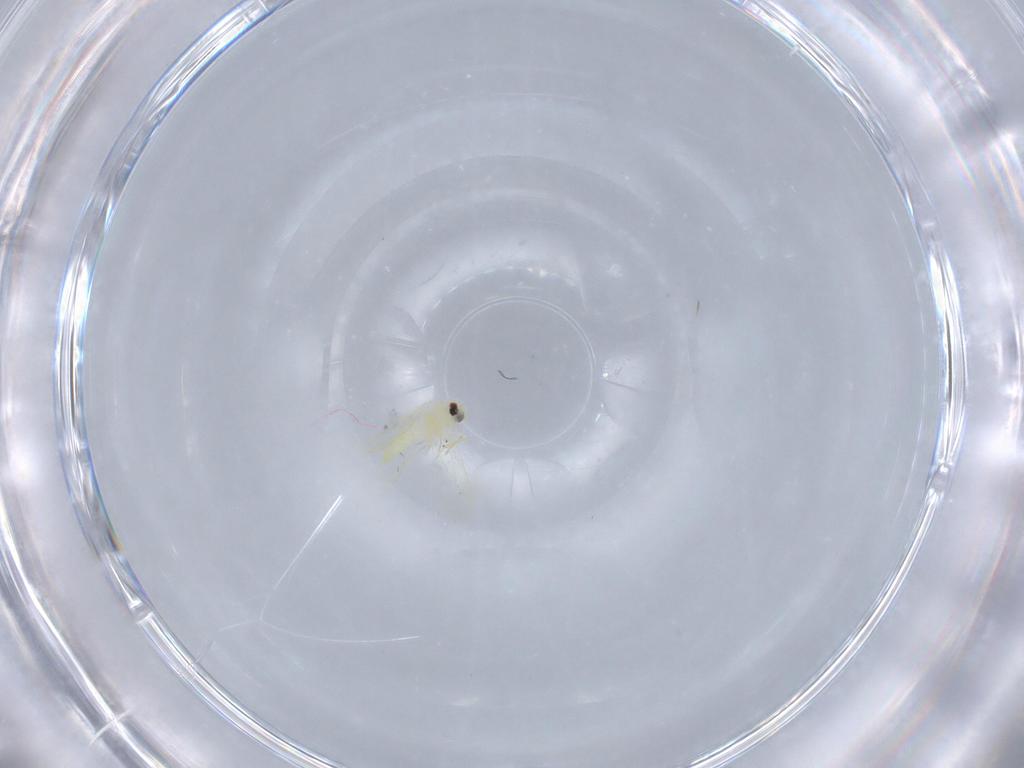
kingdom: Animalia
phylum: Arthropoda
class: Insecta
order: Hemiptera
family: Aleyrodidae
